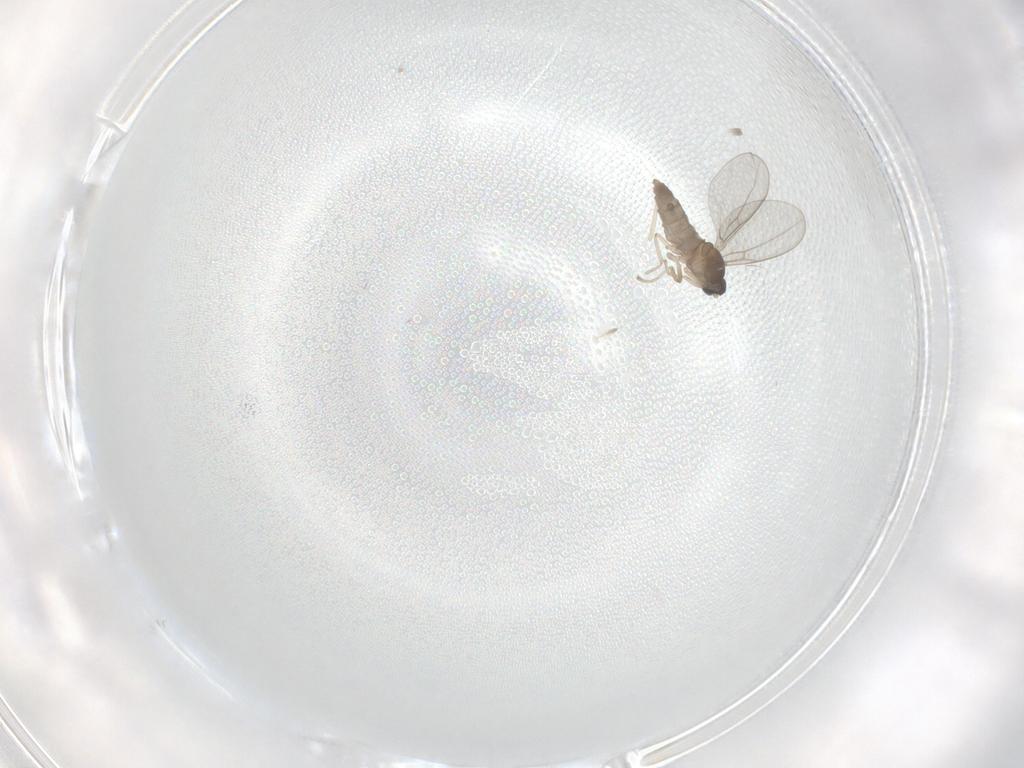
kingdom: Animalia
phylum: Arthropoda
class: Insecta
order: Diptera
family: Cecidomyiidae
